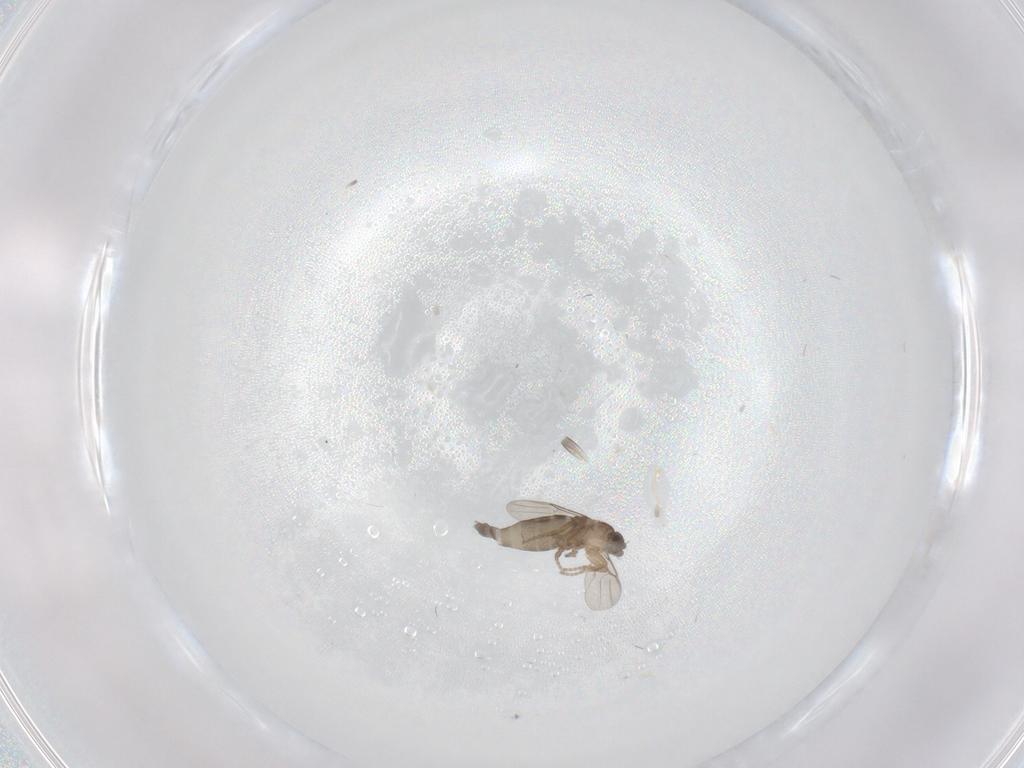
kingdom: Animalia
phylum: Arthropoda
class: Insecta
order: Diptera
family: Phoridae
